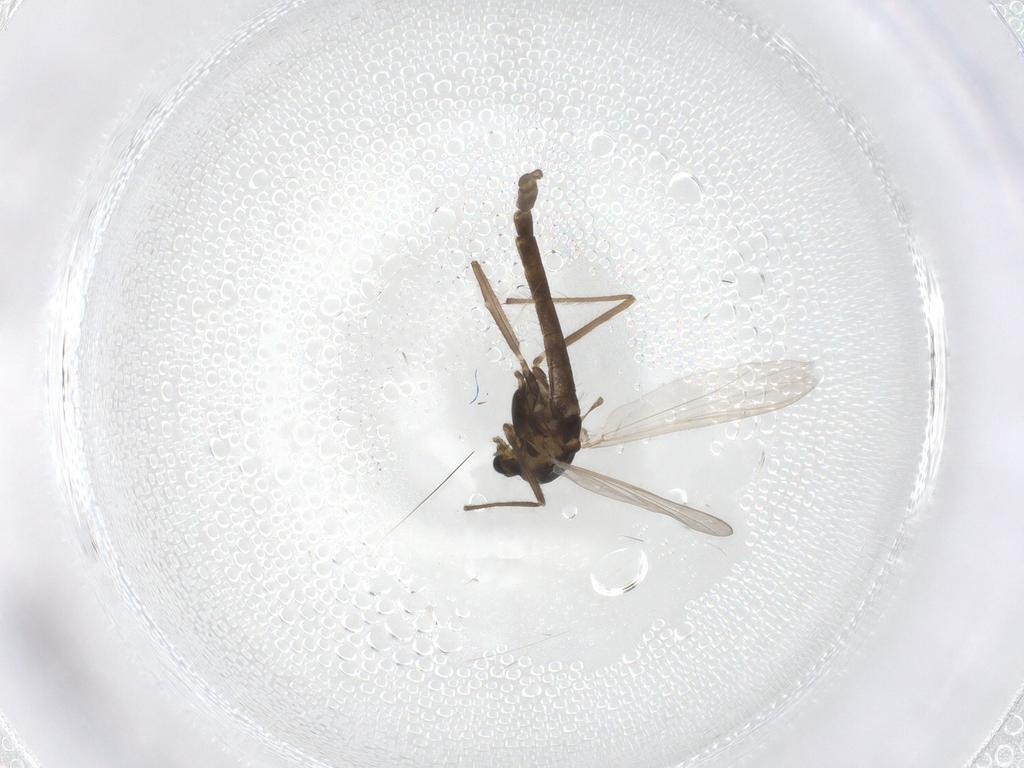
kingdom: Animalia
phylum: Arthropoda
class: Insecta
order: Diptera
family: Chironomidae
